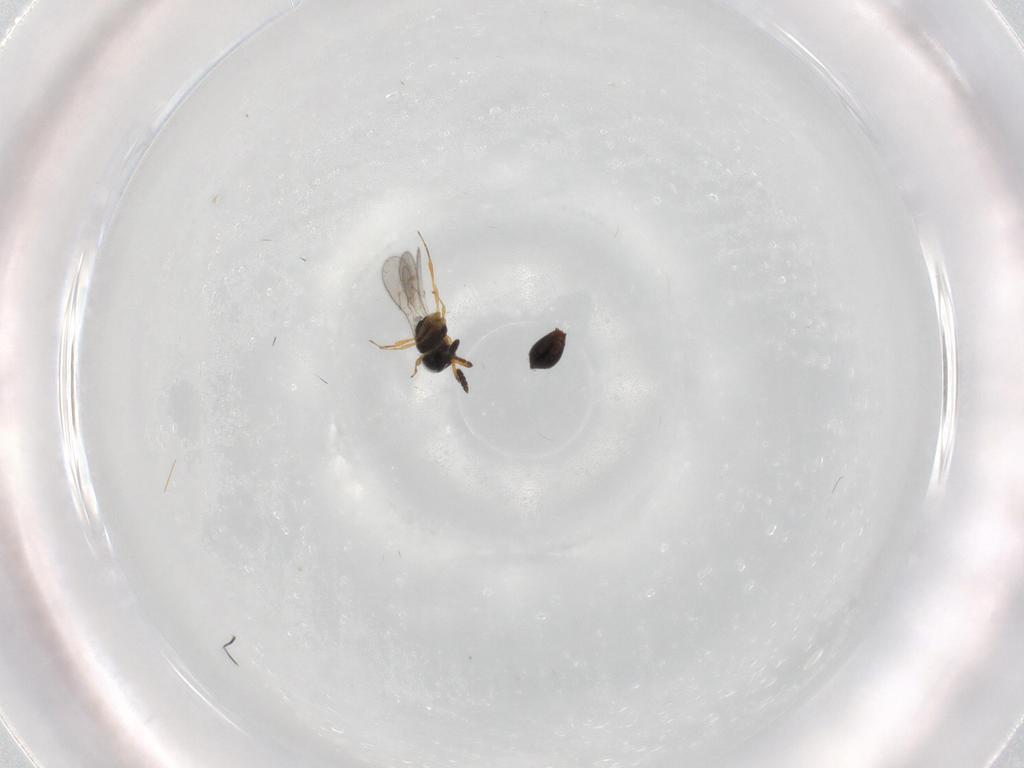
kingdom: Animalia
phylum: Arthropoda
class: Insecta
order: Hymenoptera
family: Scelionidae
